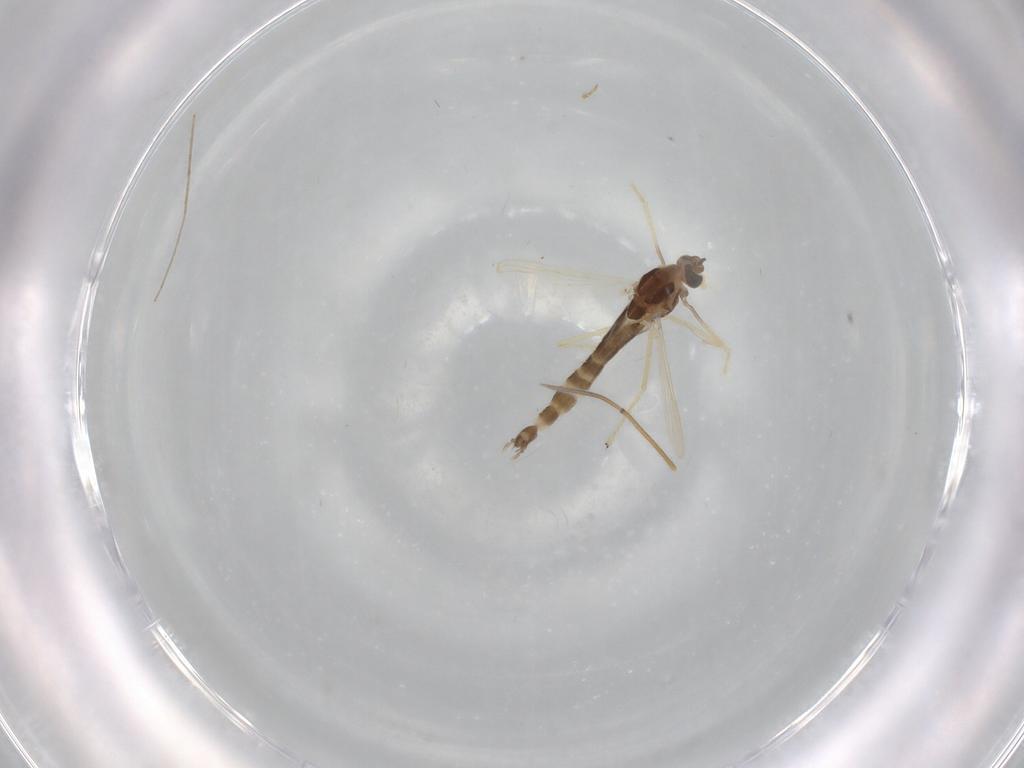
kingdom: Animalia
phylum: Arthropoda
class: Insecta
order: Diptera
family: Chironomidae
